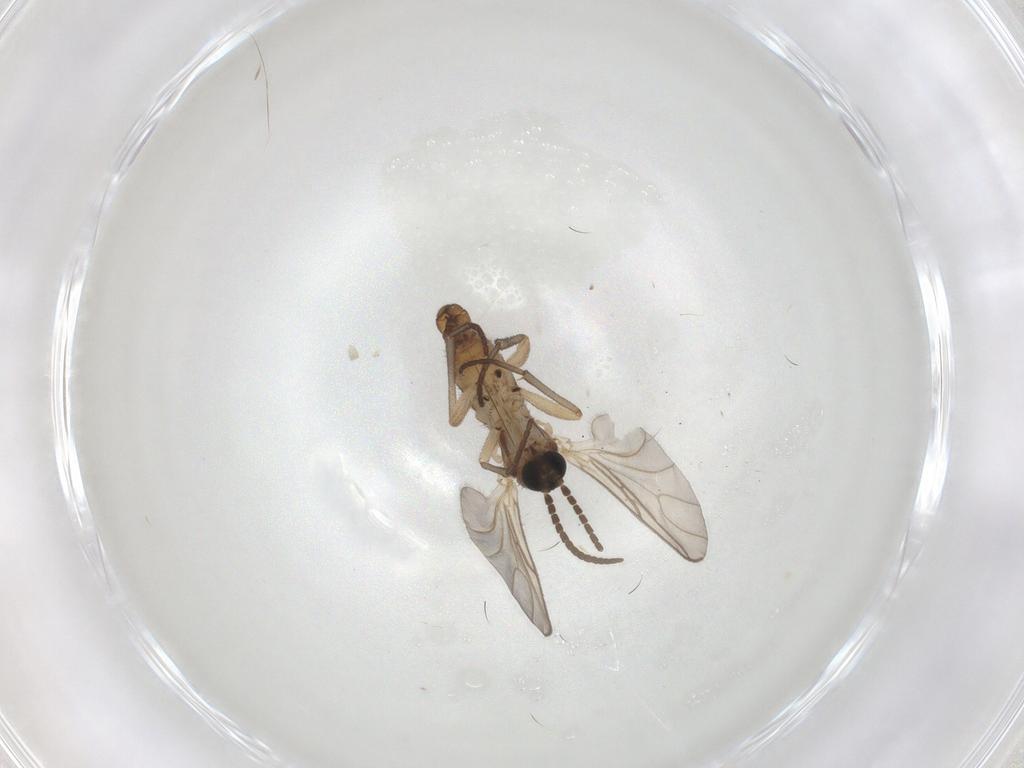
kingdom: Animalia
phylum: Arthropoda
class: Insecta
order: Diptera
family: Sciaridae
